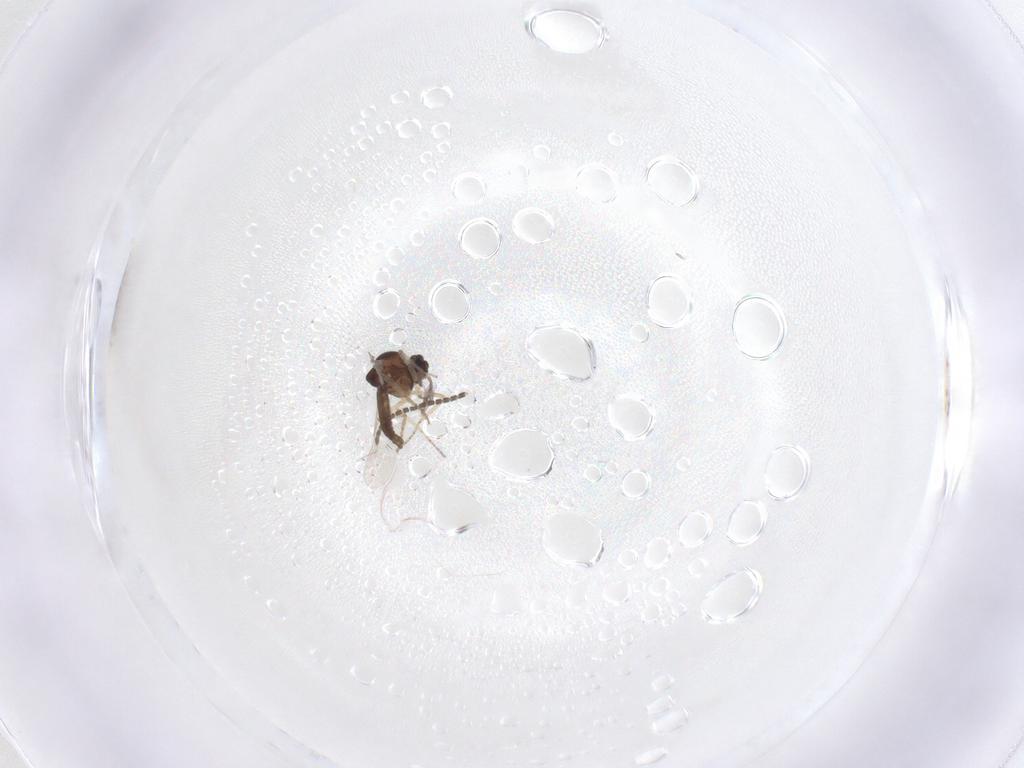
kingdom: Animalia
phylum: Arthropoda
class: Insecta
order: Diptera
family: Ceratopogonidae
